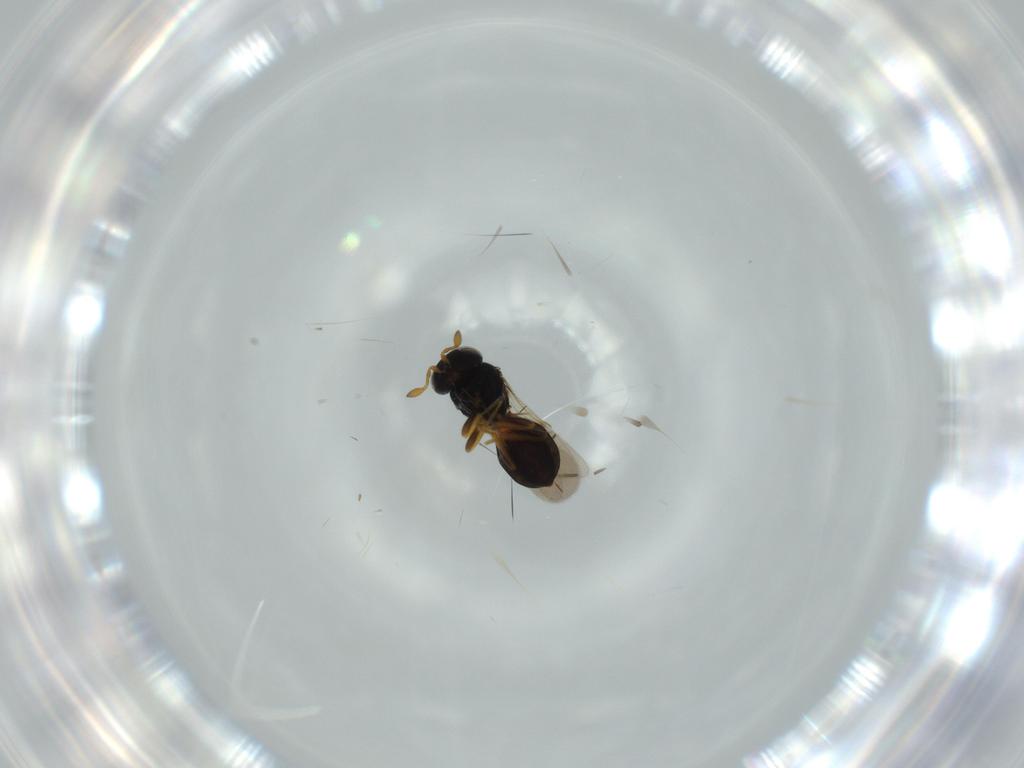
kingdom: Animalia
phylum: Arthropoda
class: Insecta
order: Hymenoptera
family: Scelionidae
